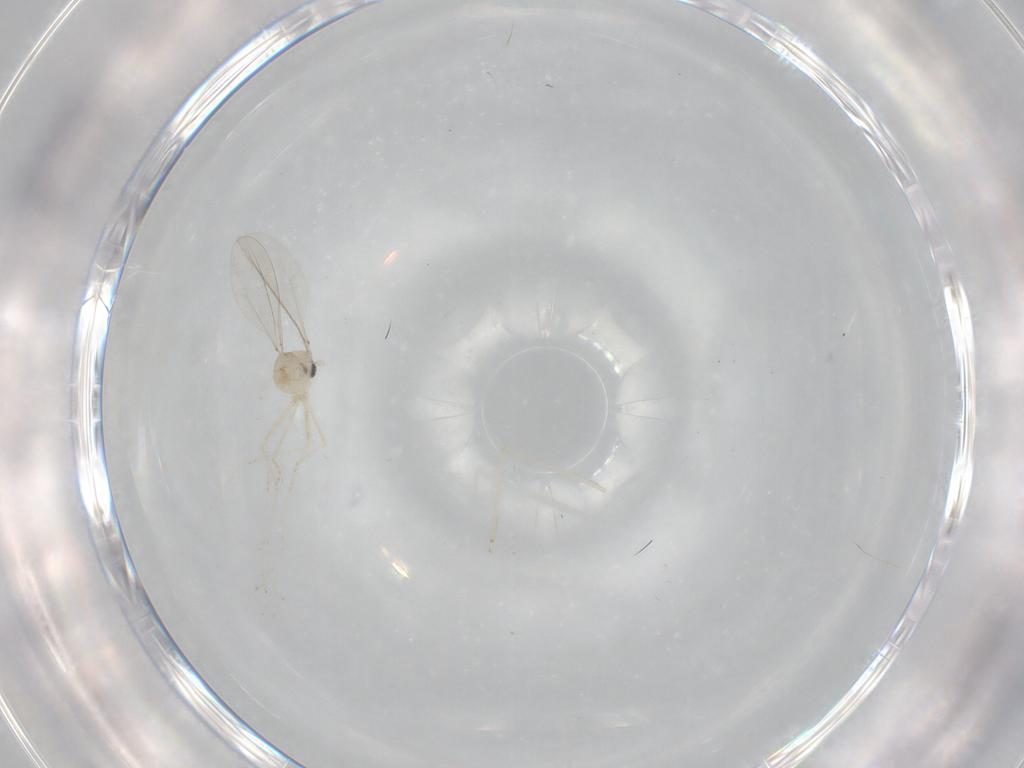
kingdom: Animalia
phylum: Arthropoda
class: Insecta
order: Diptera
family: Cecidomyiidae
